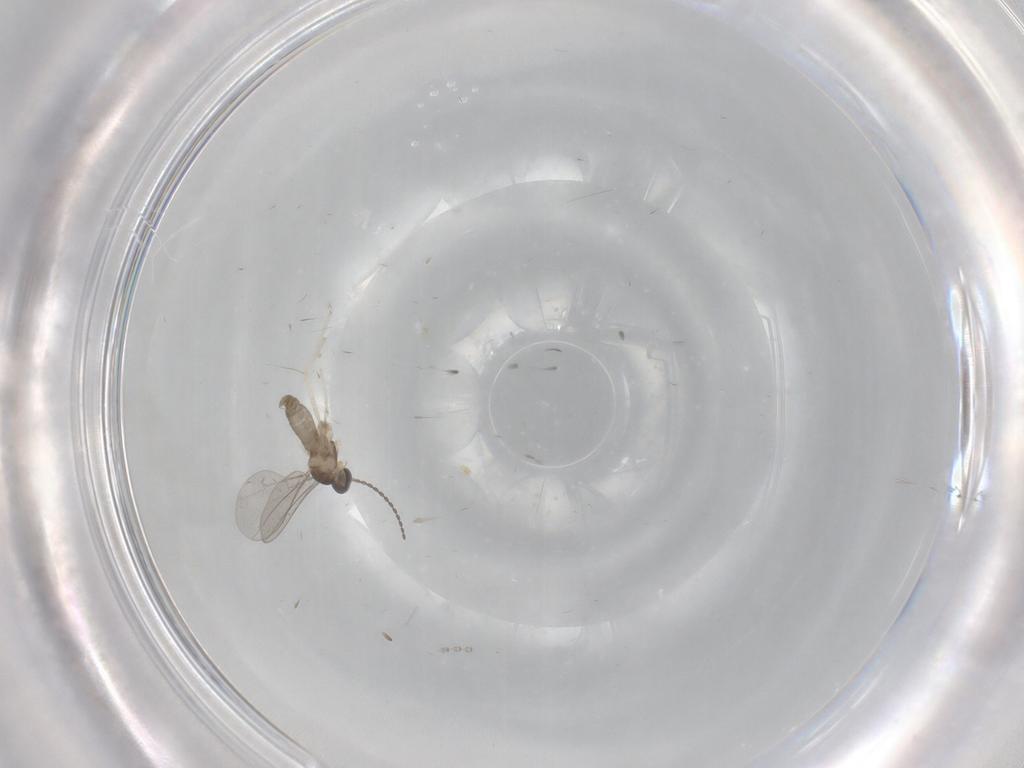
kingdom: Animalia
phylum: Arthropoda
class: Insecta
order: Diptera
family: Cecidomyiidae
